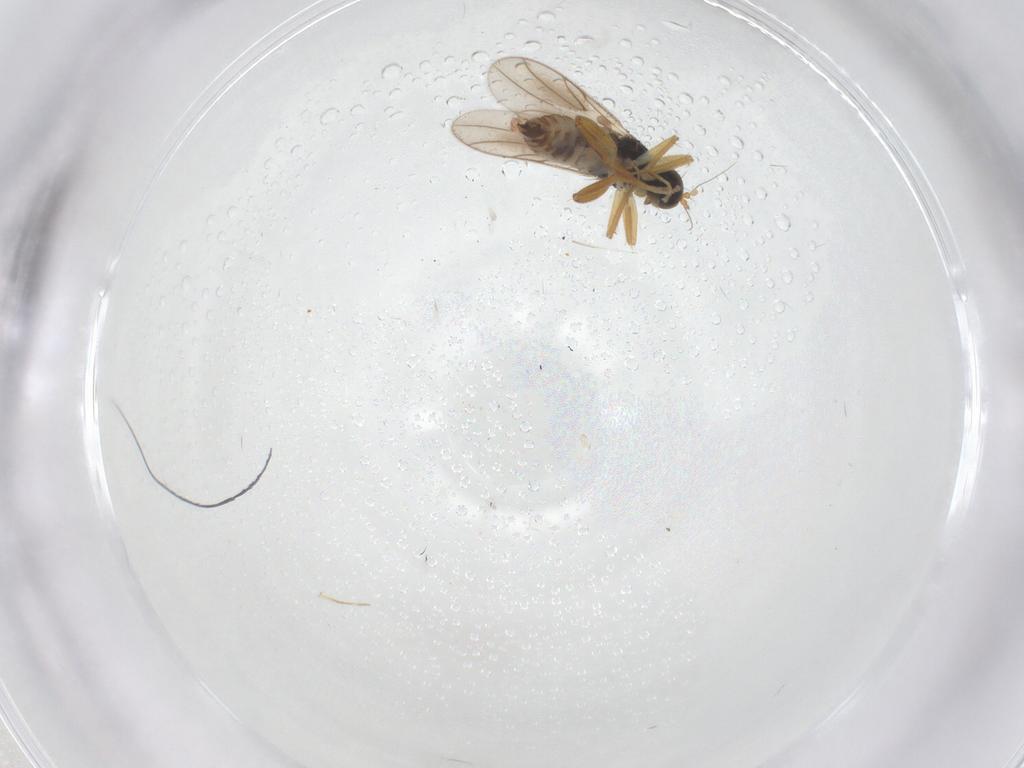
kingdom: Animalia
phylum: Arthropoda
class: Insecta
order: Diptera
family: Hybotidae
